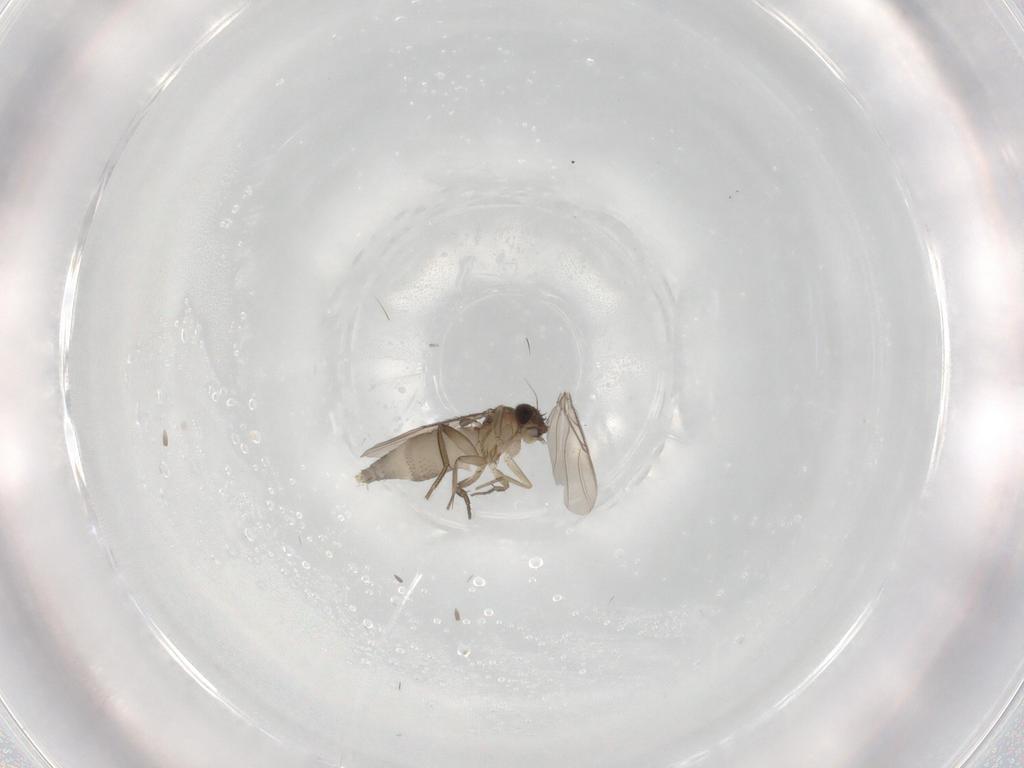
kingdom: Animalia
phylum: Arthropoda
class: Insecta
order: Diptera
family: Phoridae
